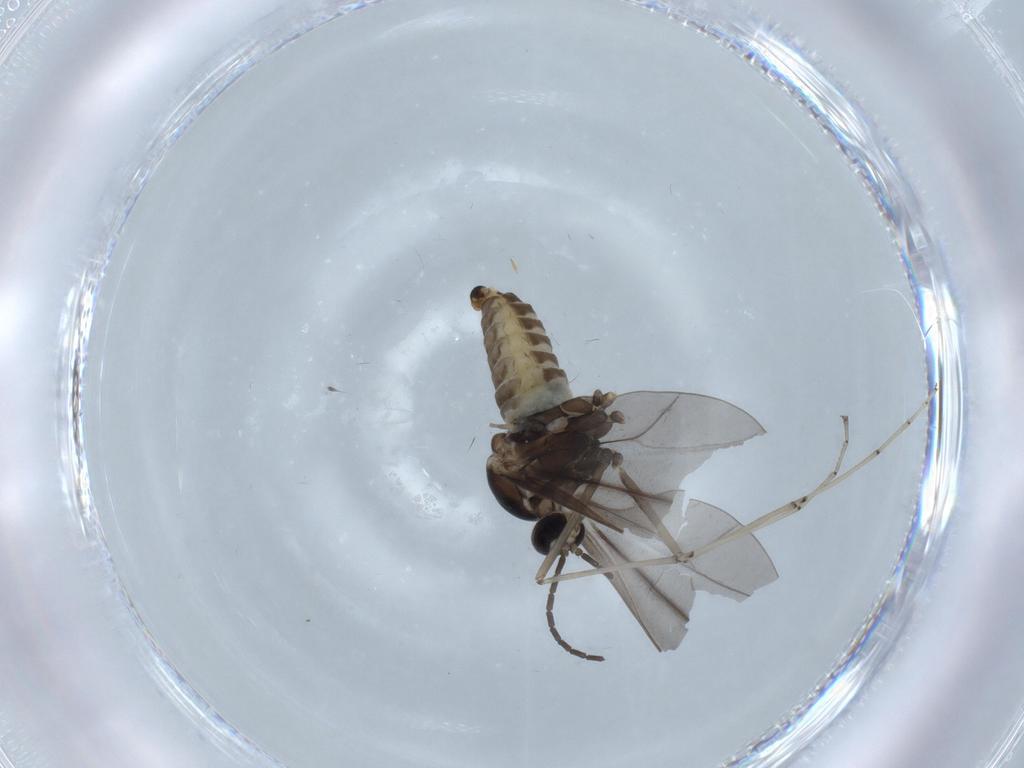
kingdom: Animalia
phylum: Arthropoda
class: Insecta
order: Diptera
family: Cecidomyiidae
